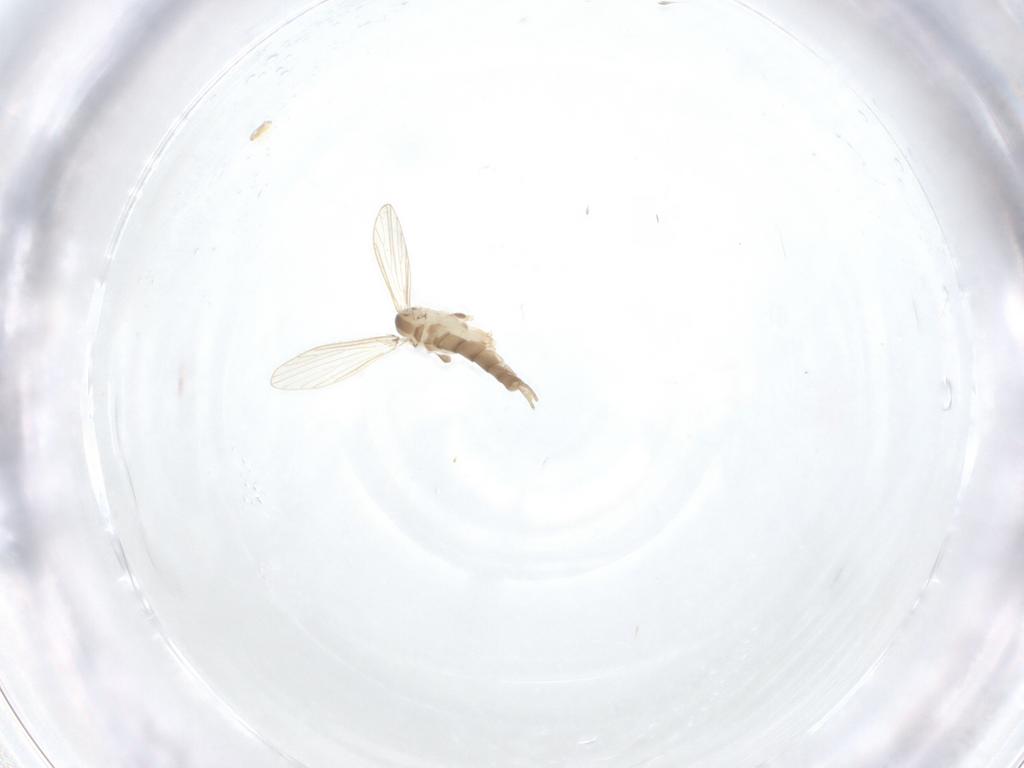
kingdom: Animalia
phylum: Arthropoda
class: Insecta
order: Diptera
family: Psychodidae
